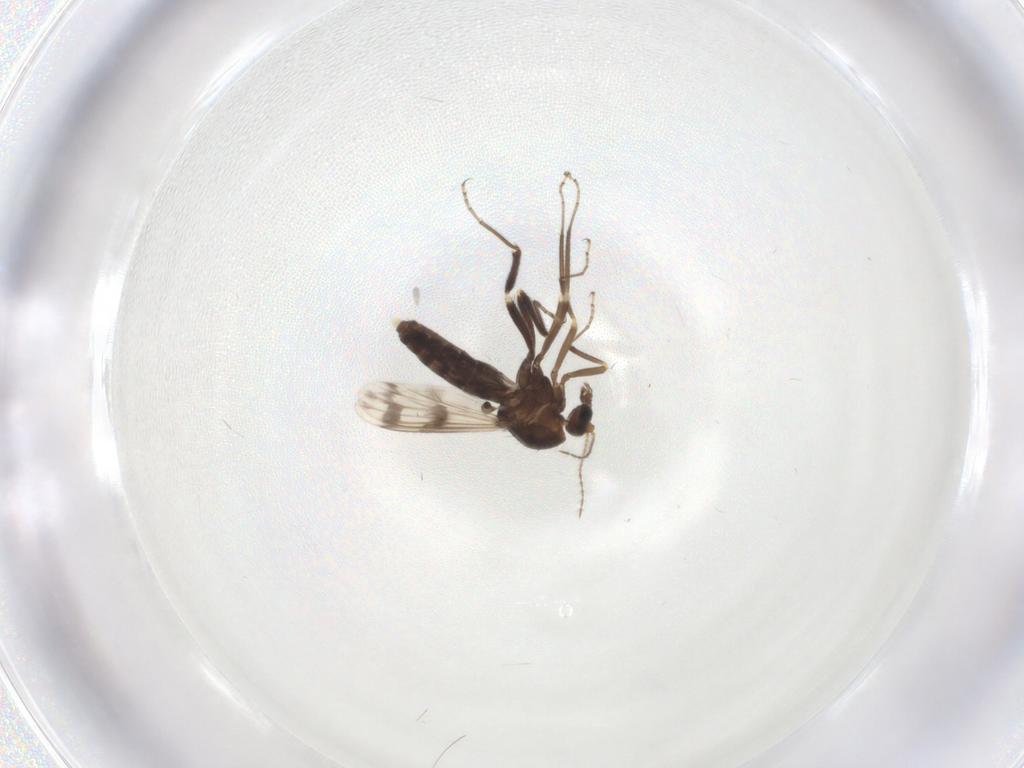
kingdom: Animalia
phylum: Arthropoda
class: Insecta
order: Diptera
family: Ceratopogonidae
